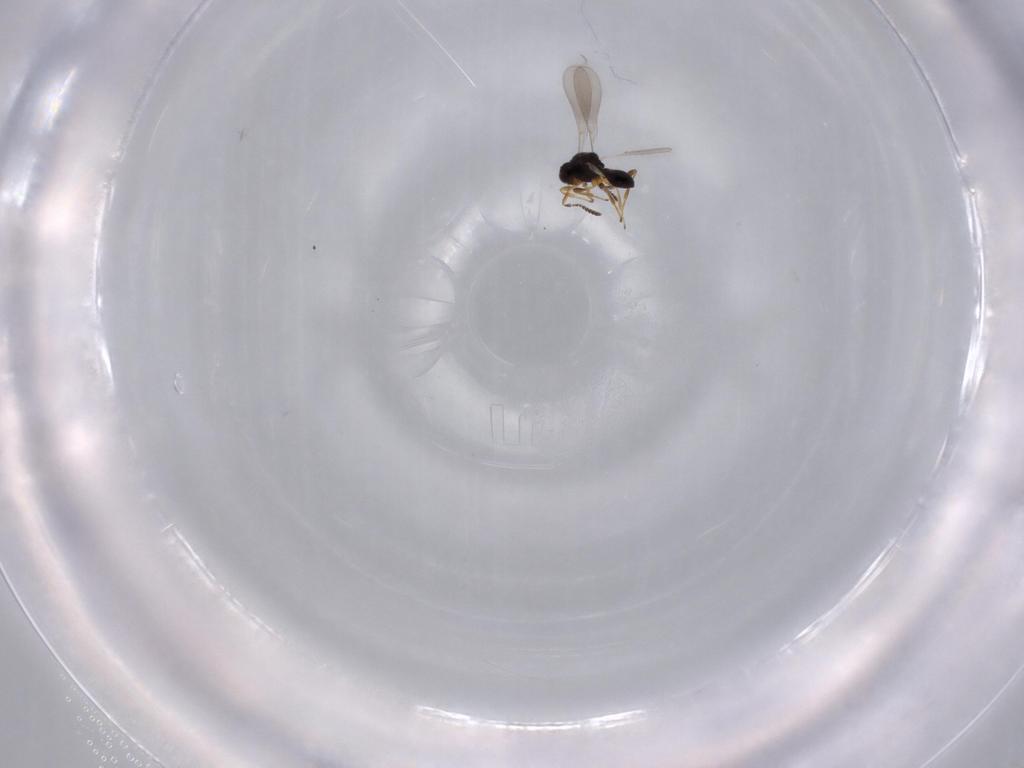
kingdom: Animalia
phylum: Arthropoda
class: Insecta
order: Hymenoptera
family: Platygastridae
